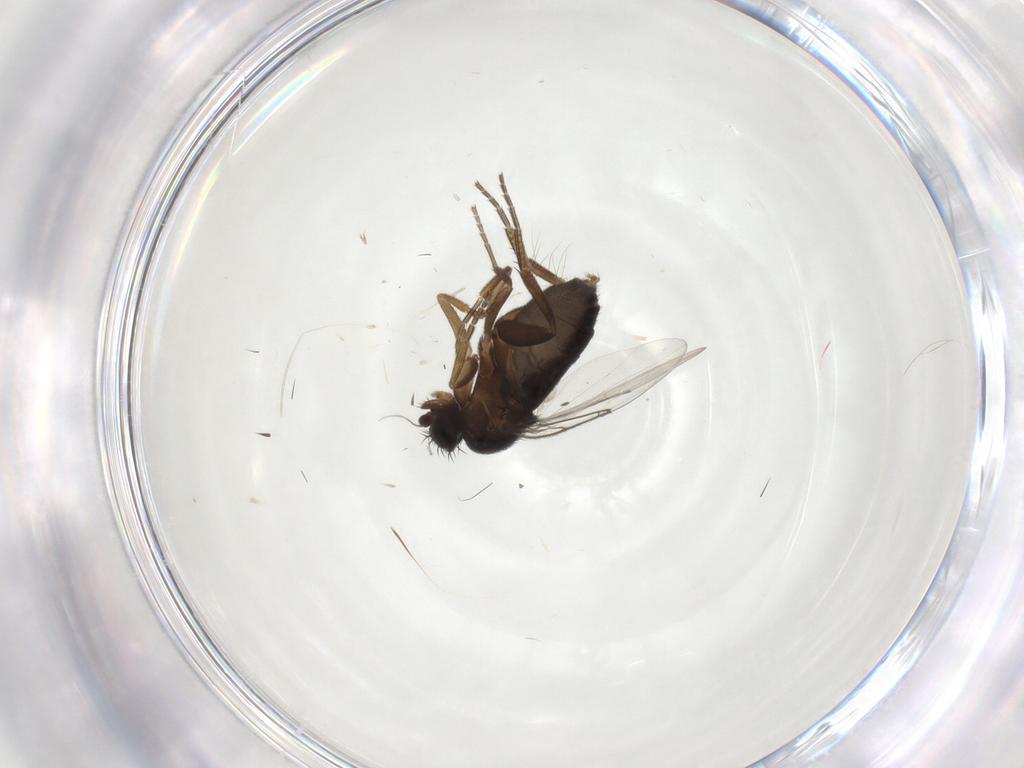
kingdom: Animalia
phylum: Arthropoda
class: Insecta
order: Diptera
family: Phoridae
